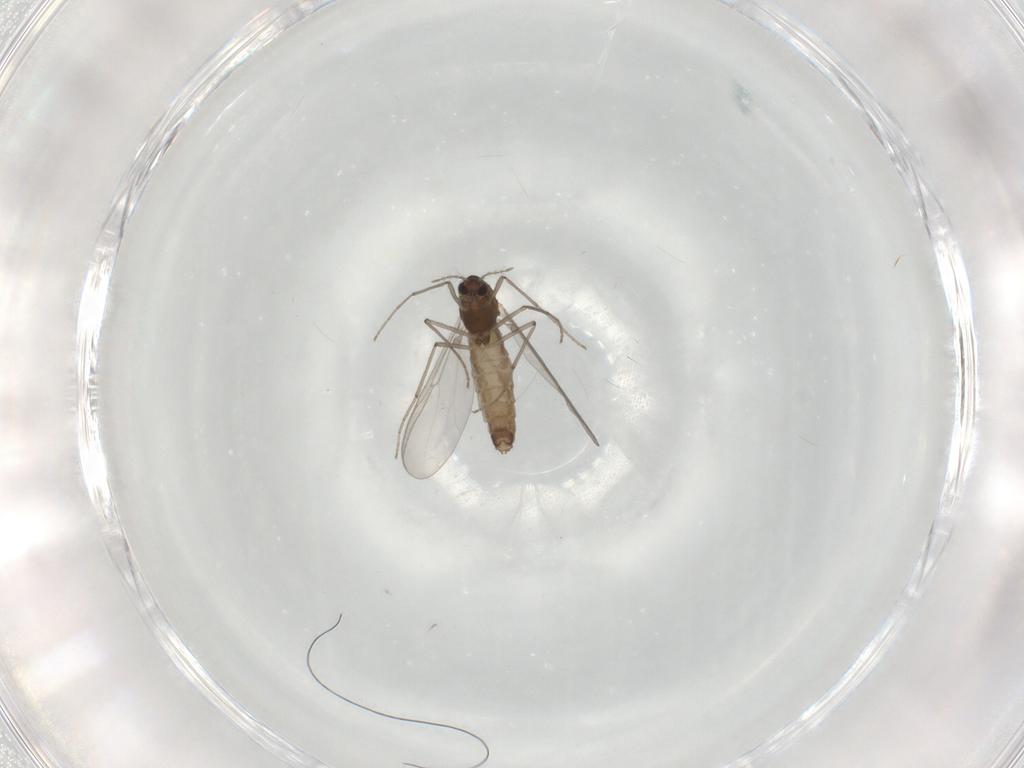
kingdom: Animalia
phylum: Arthropoda
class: Insecta
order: Diptera
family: Chironomidae
